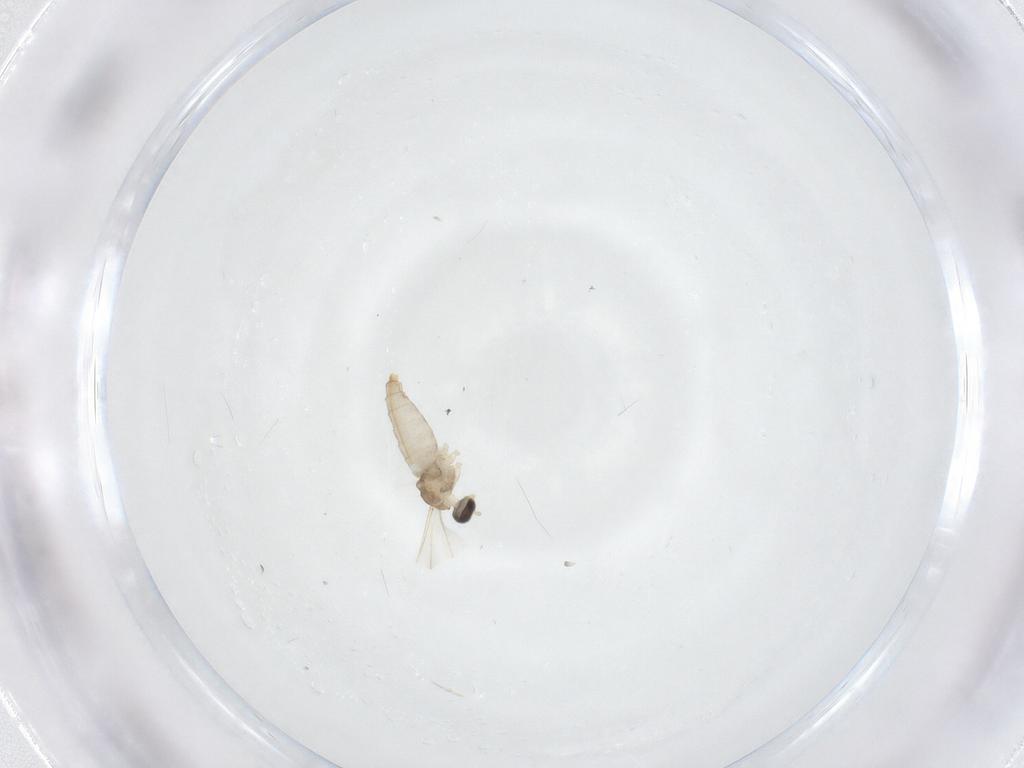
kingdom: Animalia
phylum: Arthropoda
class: Insecta
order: Diptera
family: Cecidomyiidae
